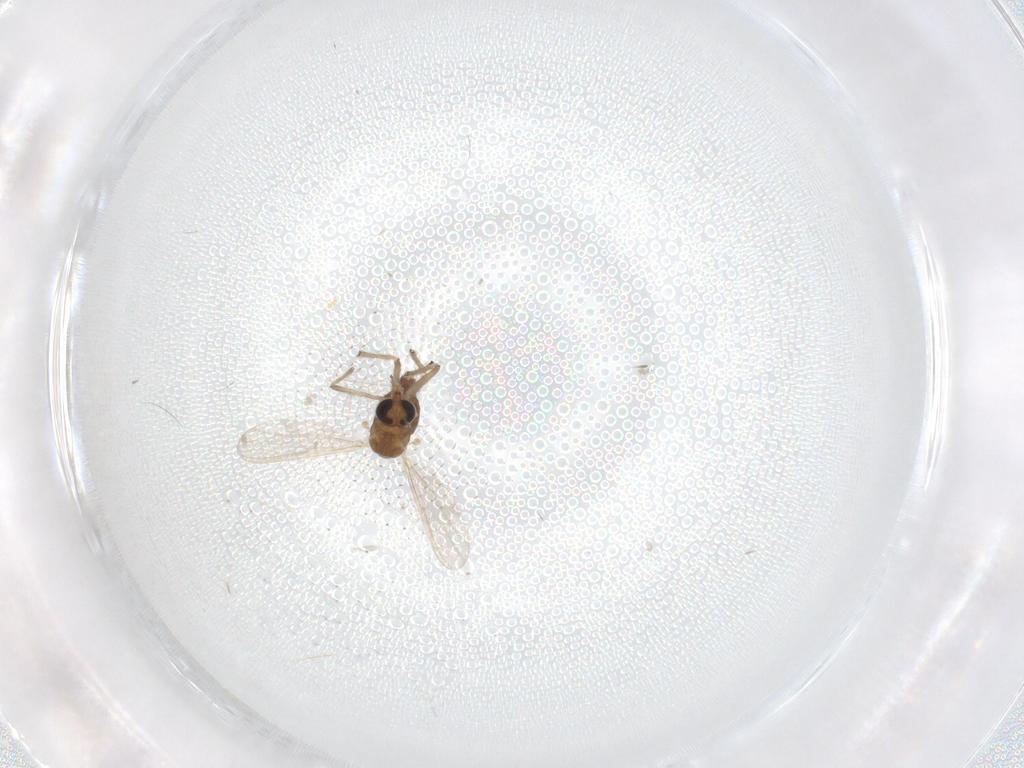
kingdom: Animalia
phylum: Arthropoda
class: Insecta
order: Diptera
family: Chironomidae
